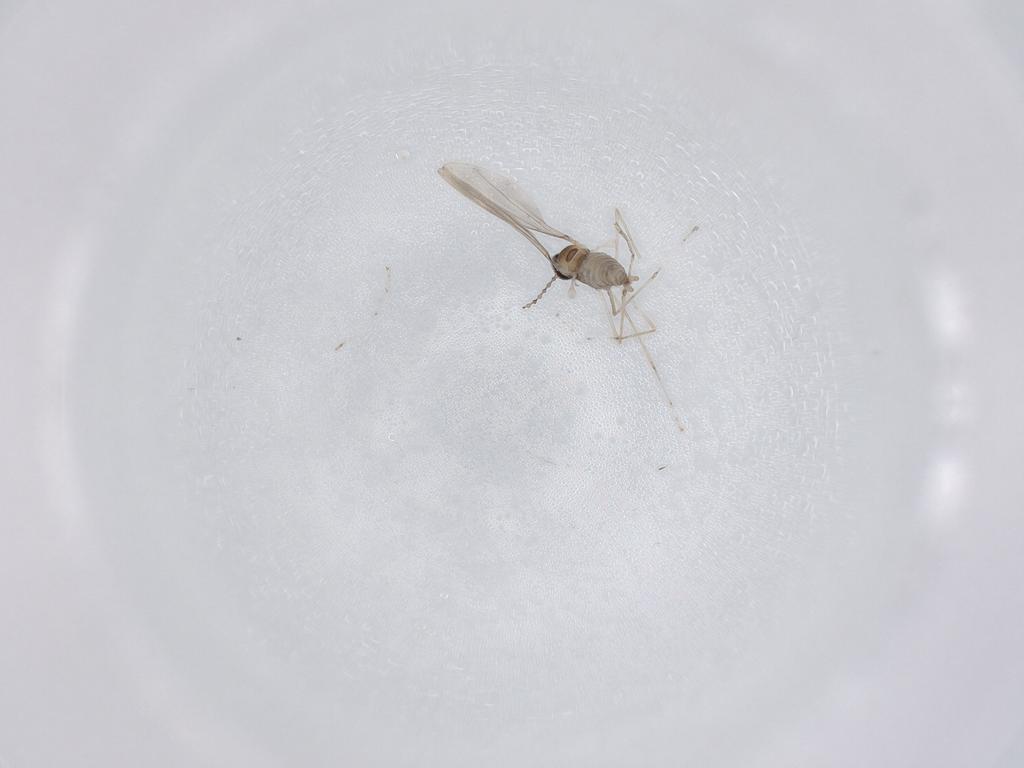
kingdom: Animalia
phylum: Arthropoda
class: Insecta
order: Diptera
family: Cecidomyiidae
